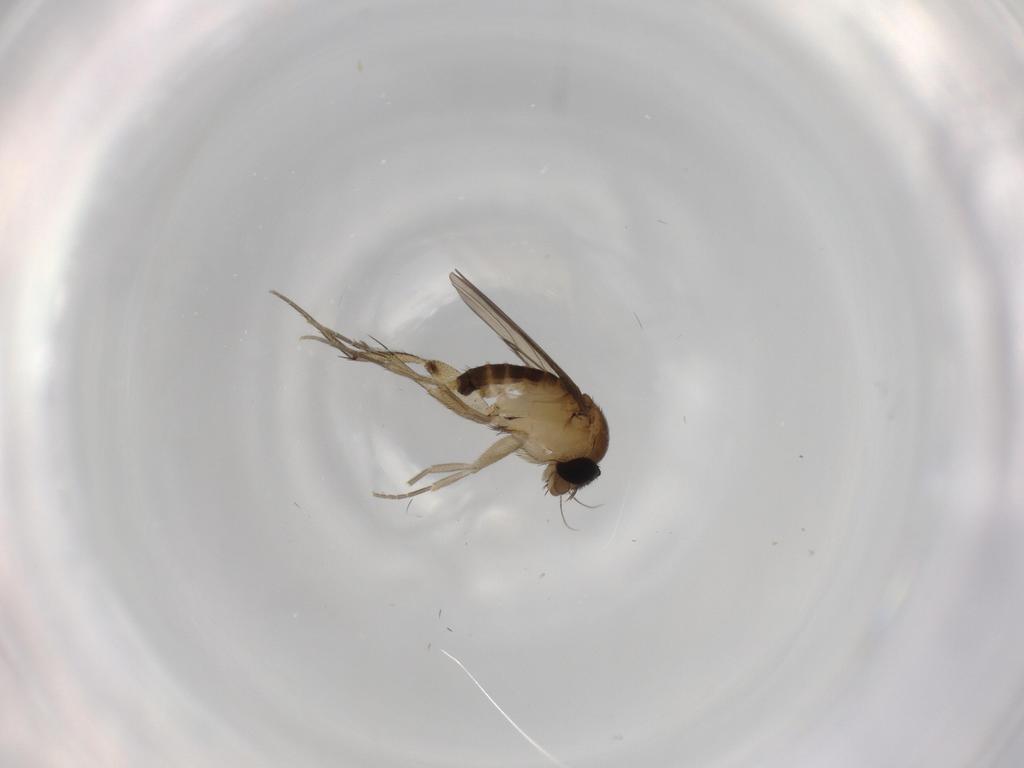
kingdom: Animalia
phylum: Arthropoda
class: Insecta
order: Diptera
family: Phoridae
